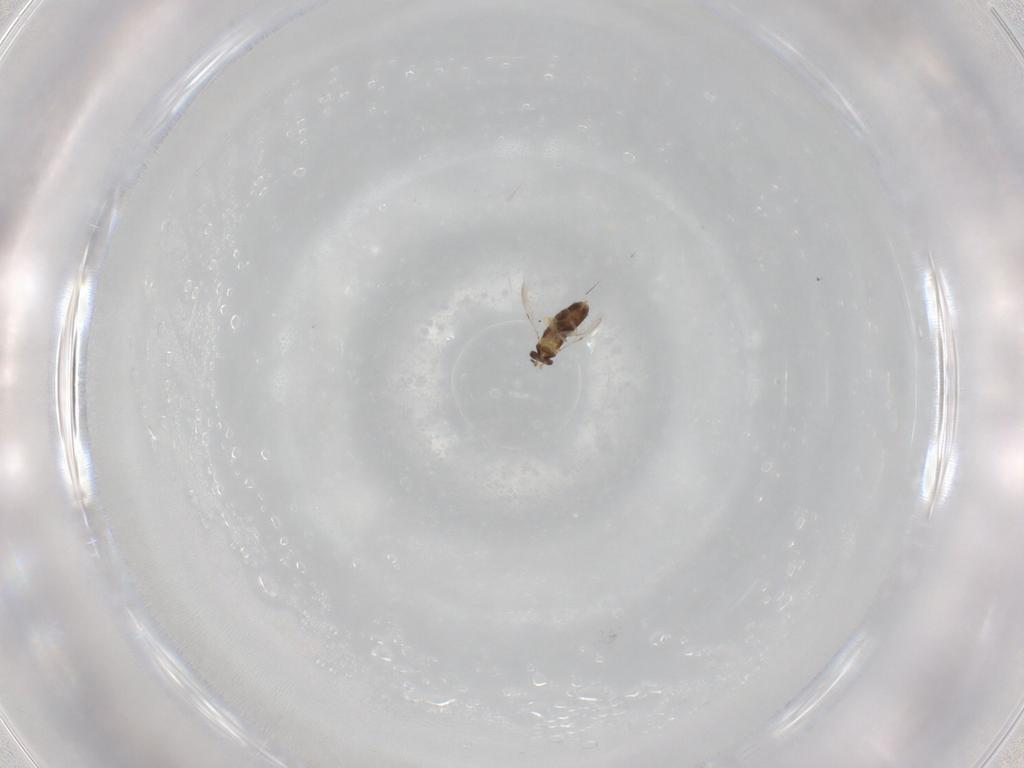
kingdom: Animalia
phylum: Arthropoda
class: Insecta
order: Hymenoptera
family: Aphelinidae
